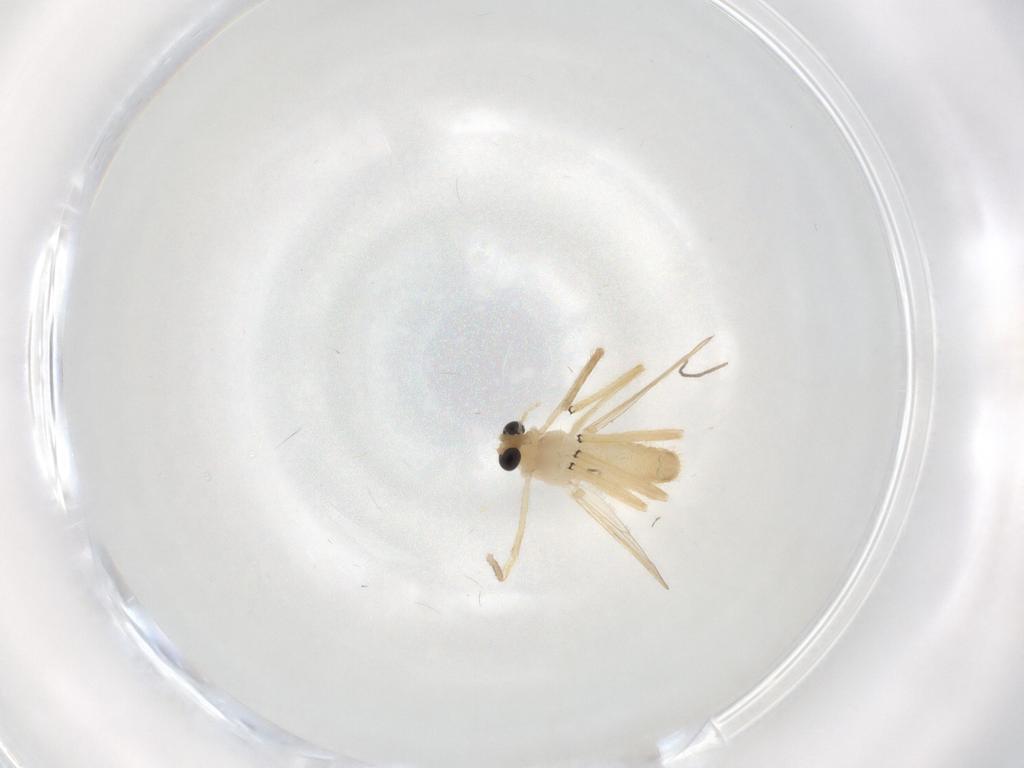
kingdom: Animalia
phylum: Arthropoda
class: Insecta
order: Diptera
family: Chironomidae
